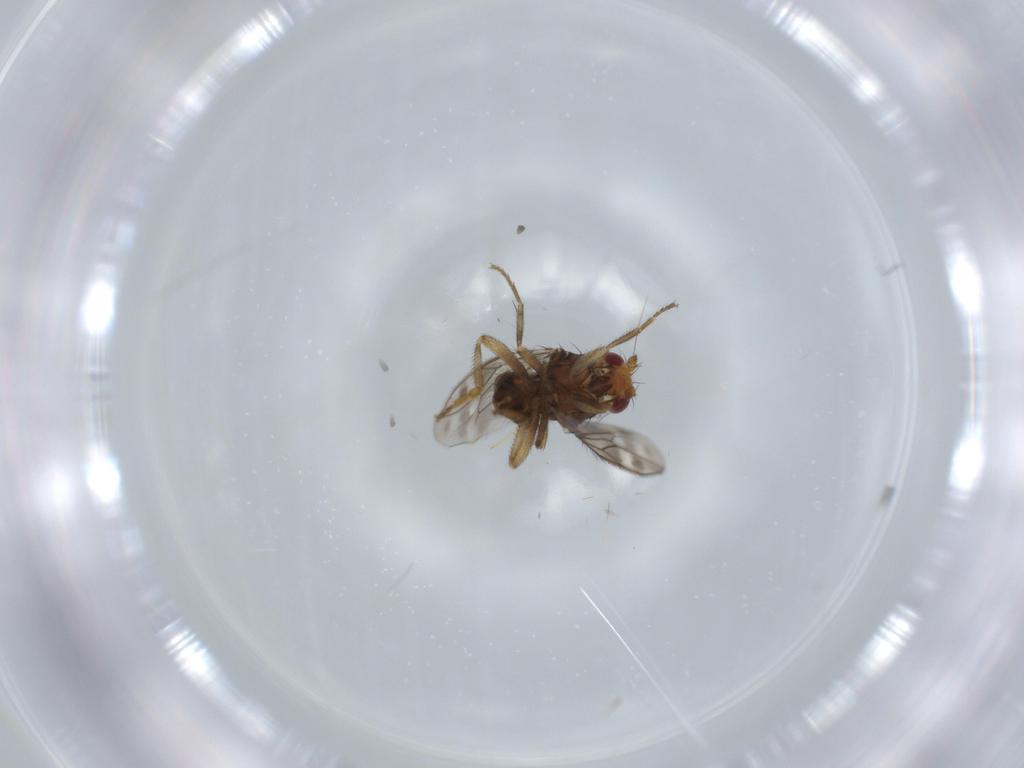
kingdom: Animalia
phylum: Arthropoda
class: Insecta
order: Diptera
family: Sphaeroceridae
